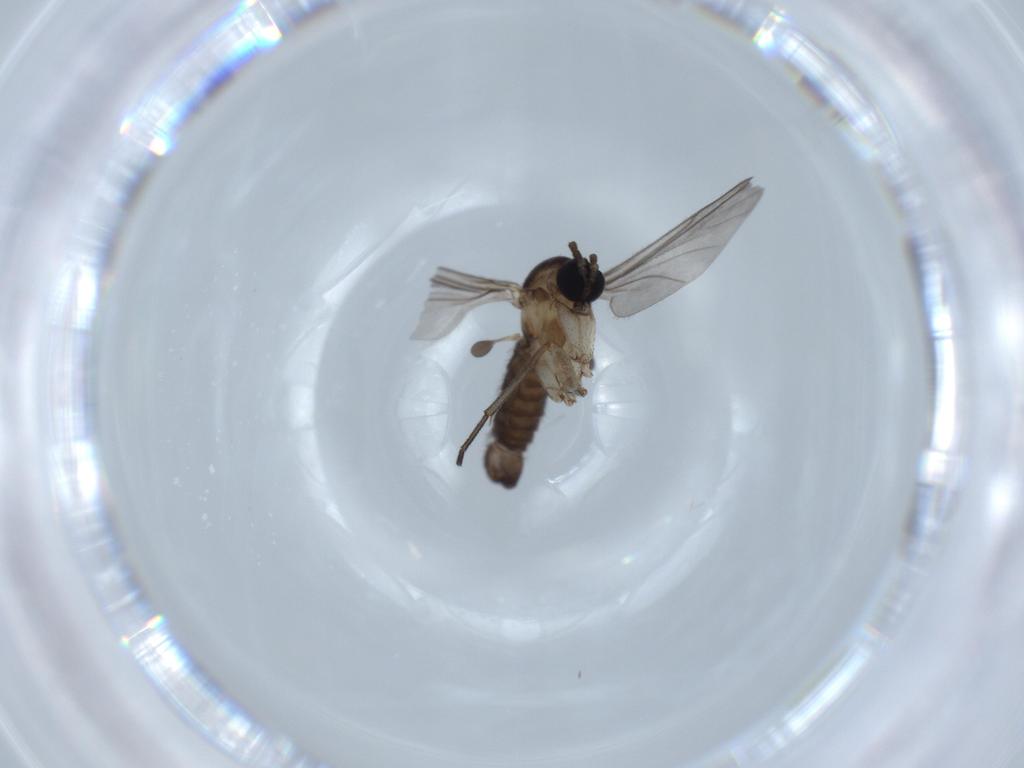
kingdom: Animalia
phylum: Arthropoda
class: Insecta
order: Diptera
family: Sciaridae
